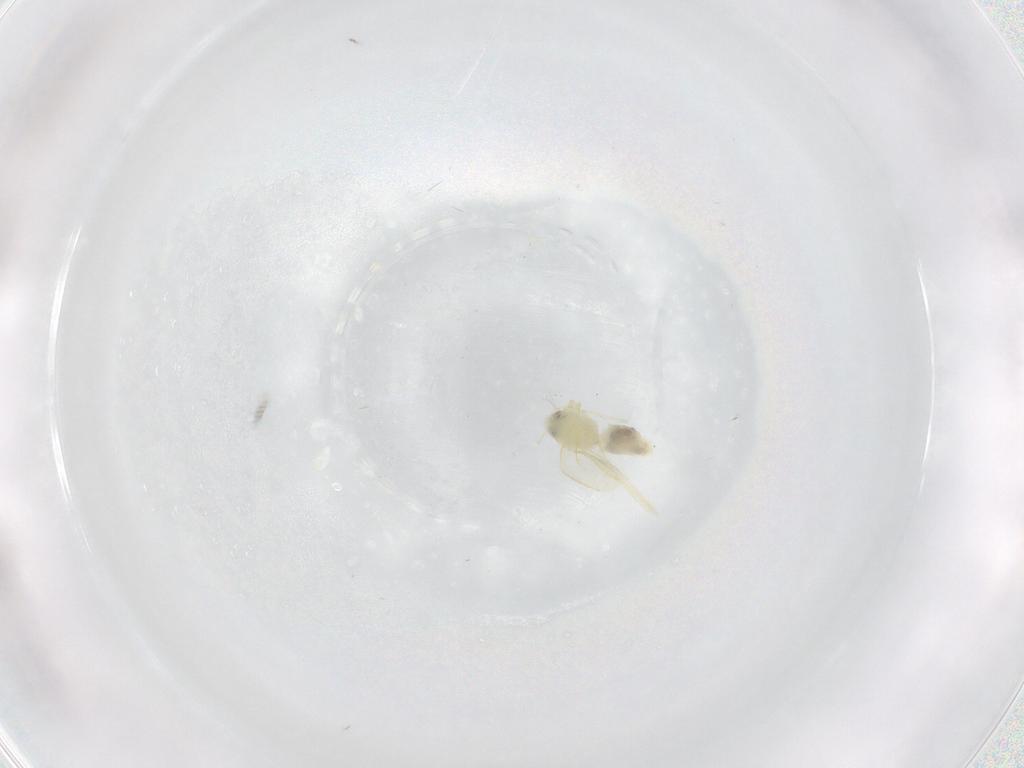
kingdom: Animalia
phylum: Arthropoda
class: Insecta
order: Hemiptera
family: Aleyrodidae
